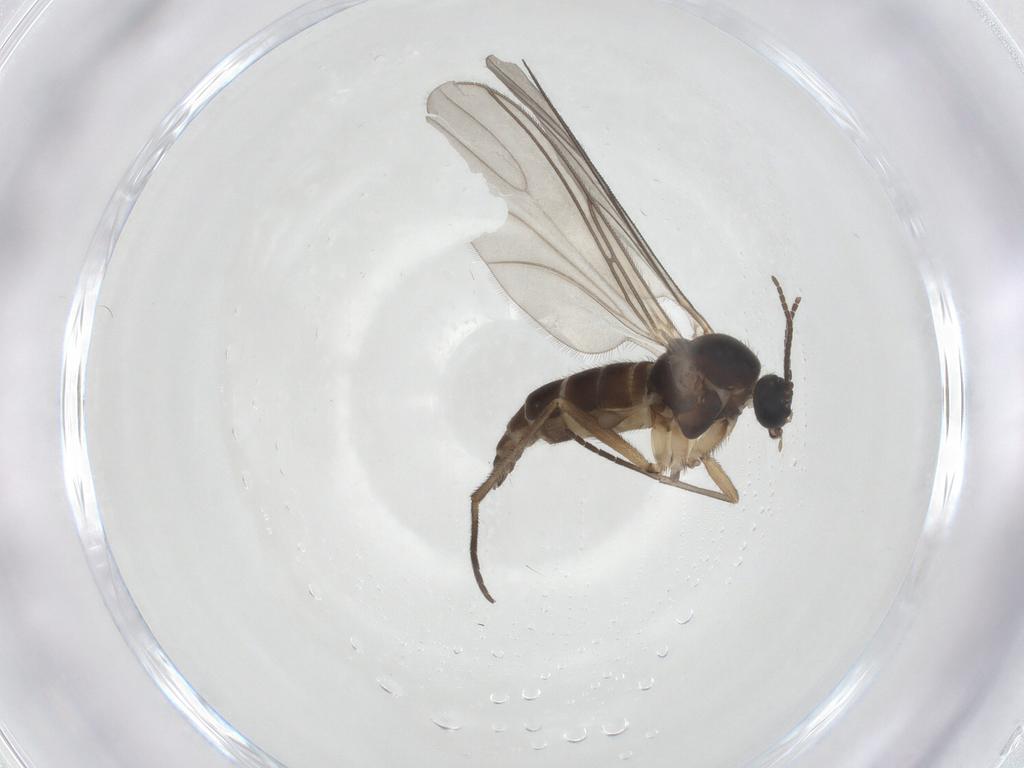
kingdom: Animalia
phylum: Arthropoda
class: Insecta
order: Diptera
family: Sciaridae
